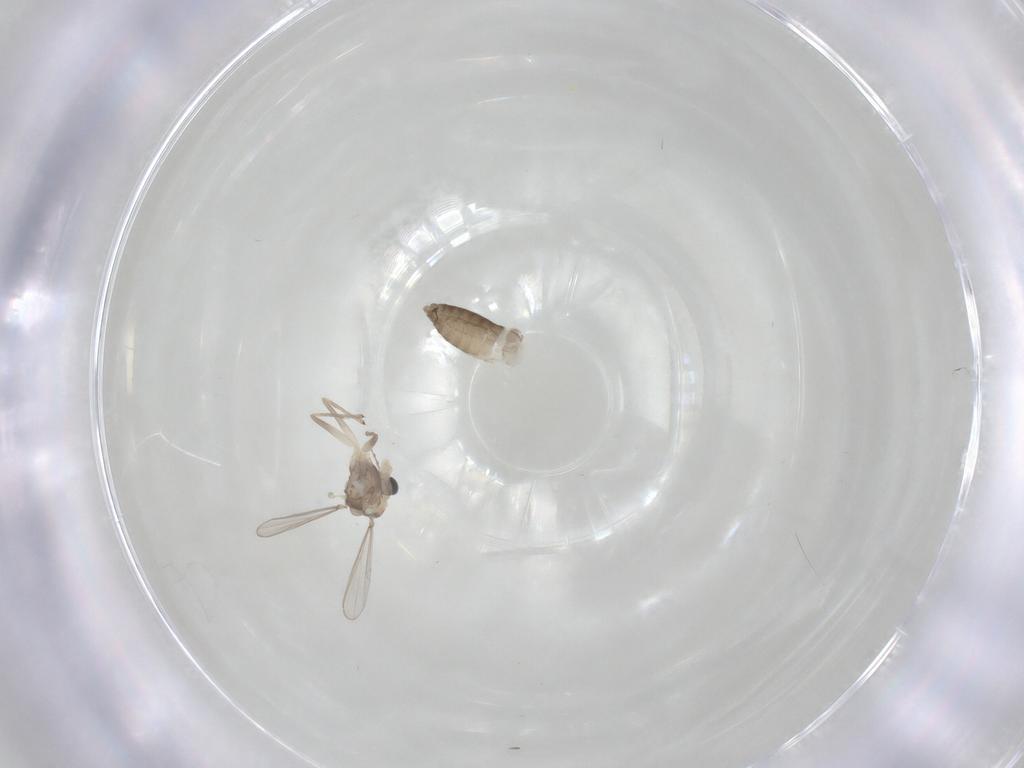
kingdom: Animalia
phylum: Arthropoda
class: Insecta
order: Diptera
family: Chironomidae
